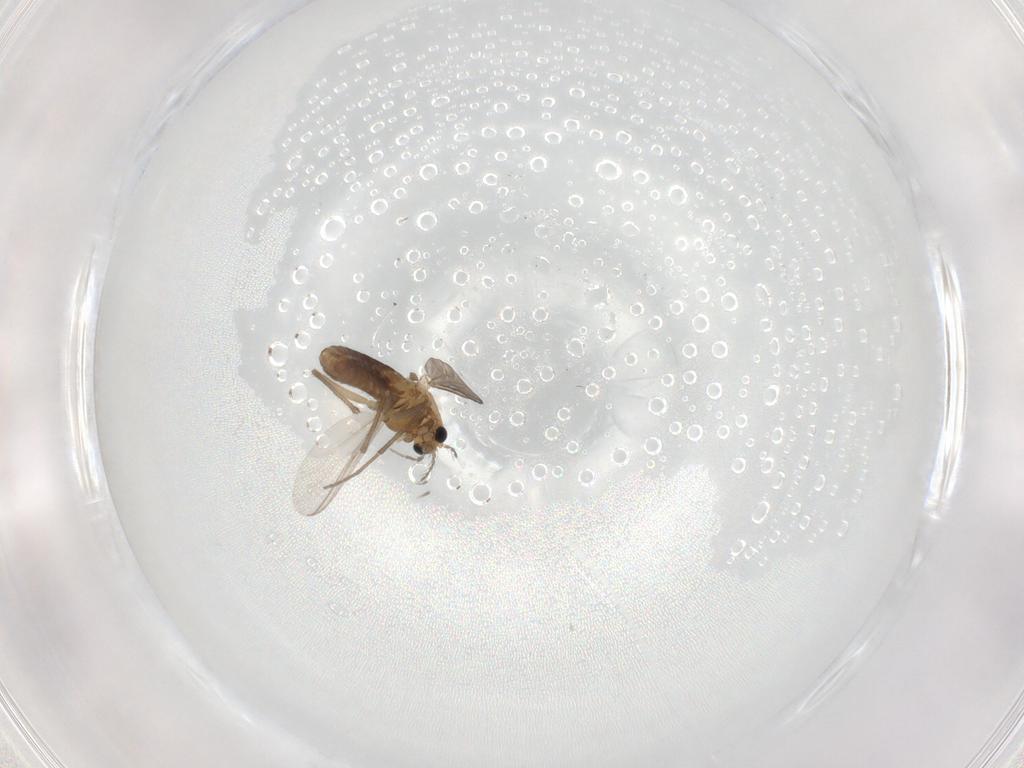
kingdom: Animalia
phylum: Arthropoda
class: Insecta
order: Diptera
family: Chironomidae
